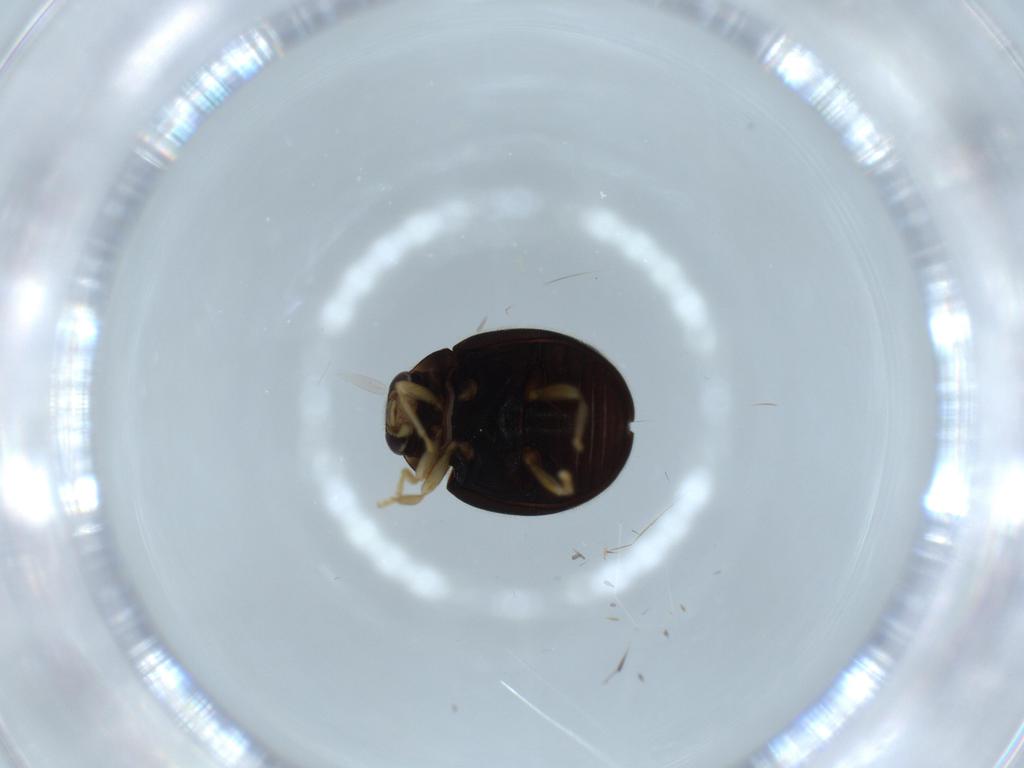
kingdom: Animalia
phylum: Arthropoda
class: Insecta
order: Coleoptera
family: Coccinellidae
